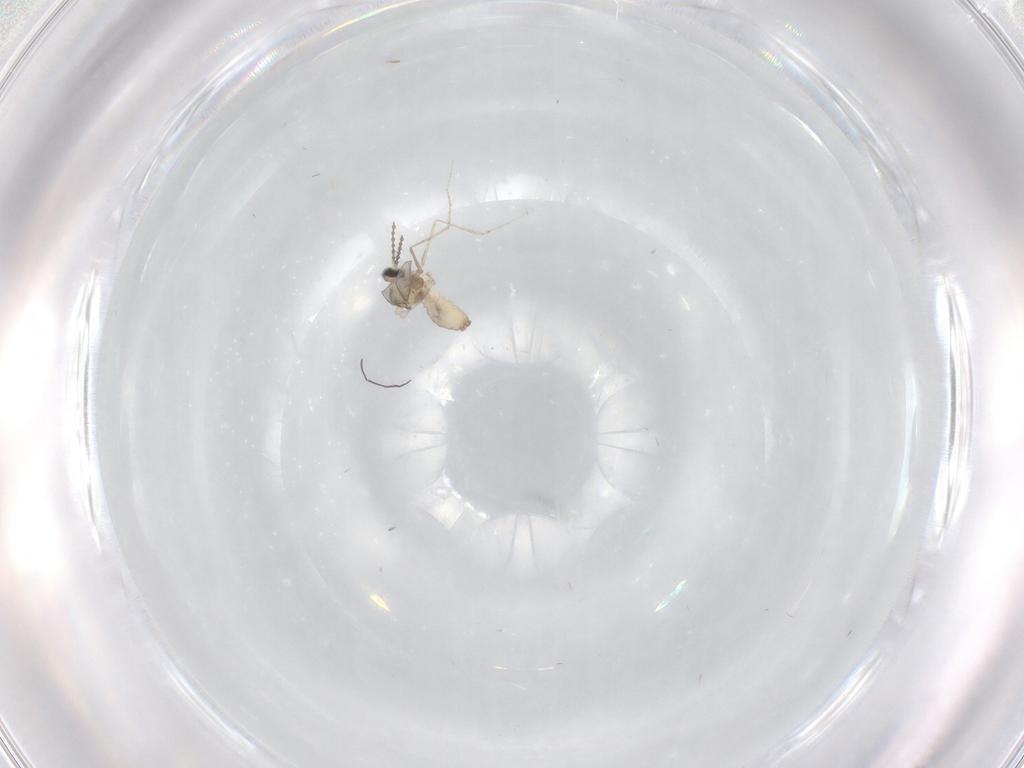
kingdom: Animalia
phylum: Arthropoda
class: Insecta
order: Diptera
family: Cecidomyiidae
